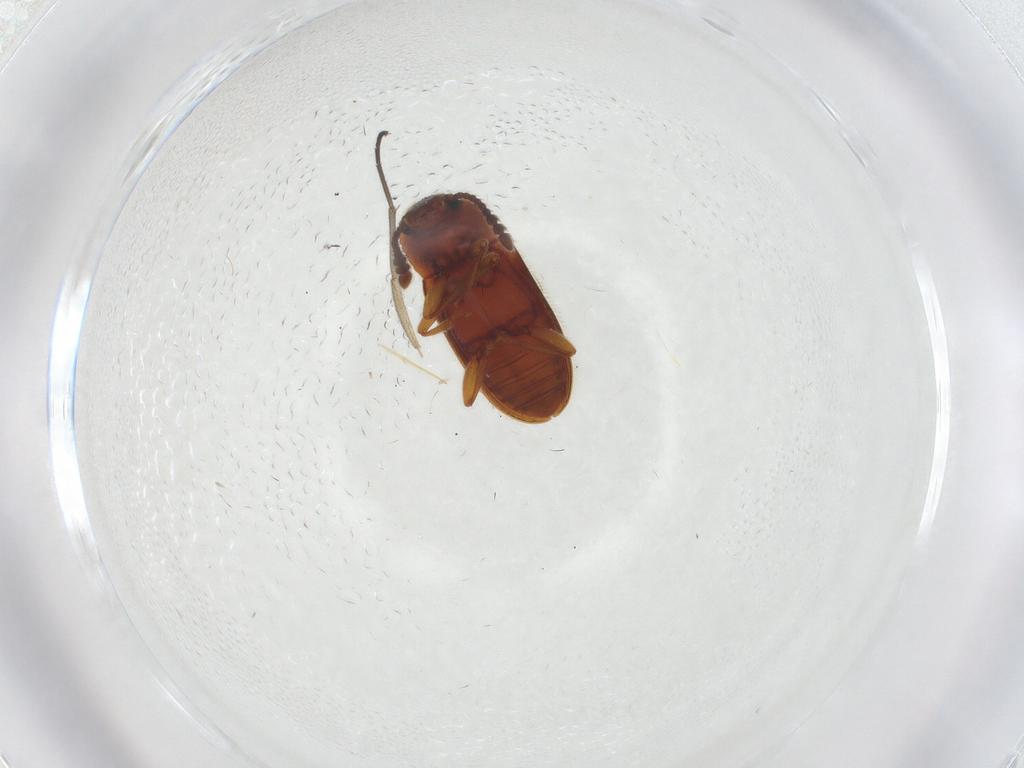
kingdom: Animalia
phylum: Arthropoda
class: Insecta
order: Coleoptera
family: Erotylidae
